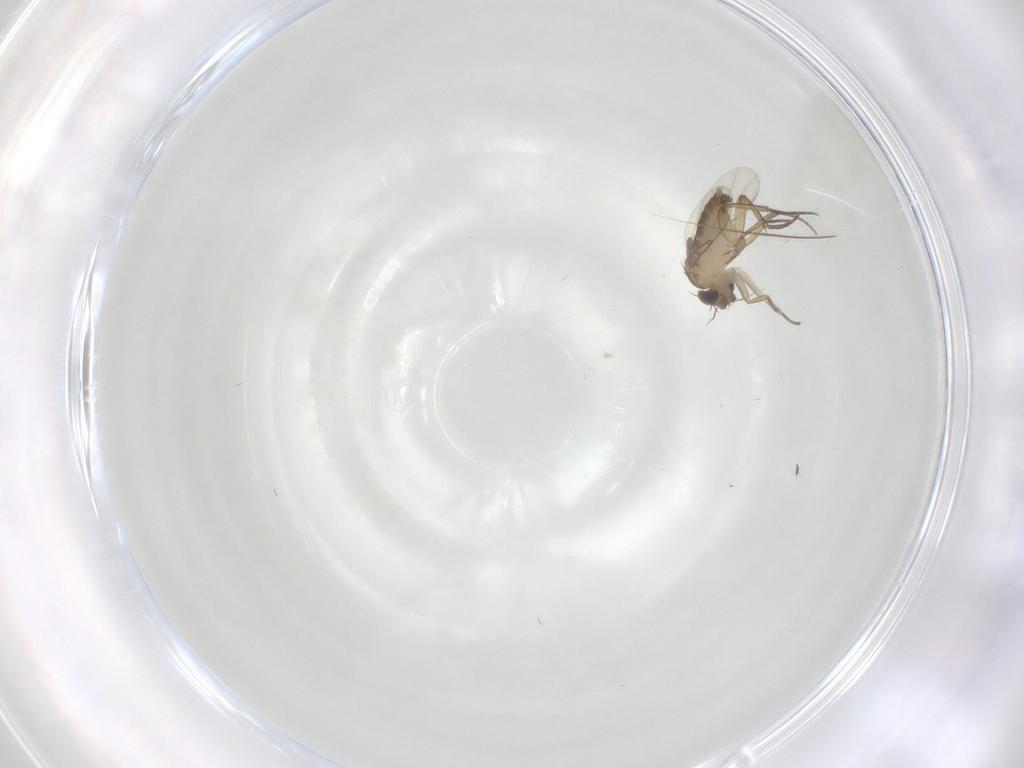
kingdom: Animalia
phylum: Arthropoda
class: Insecta
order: Diptera
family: Phoridae
